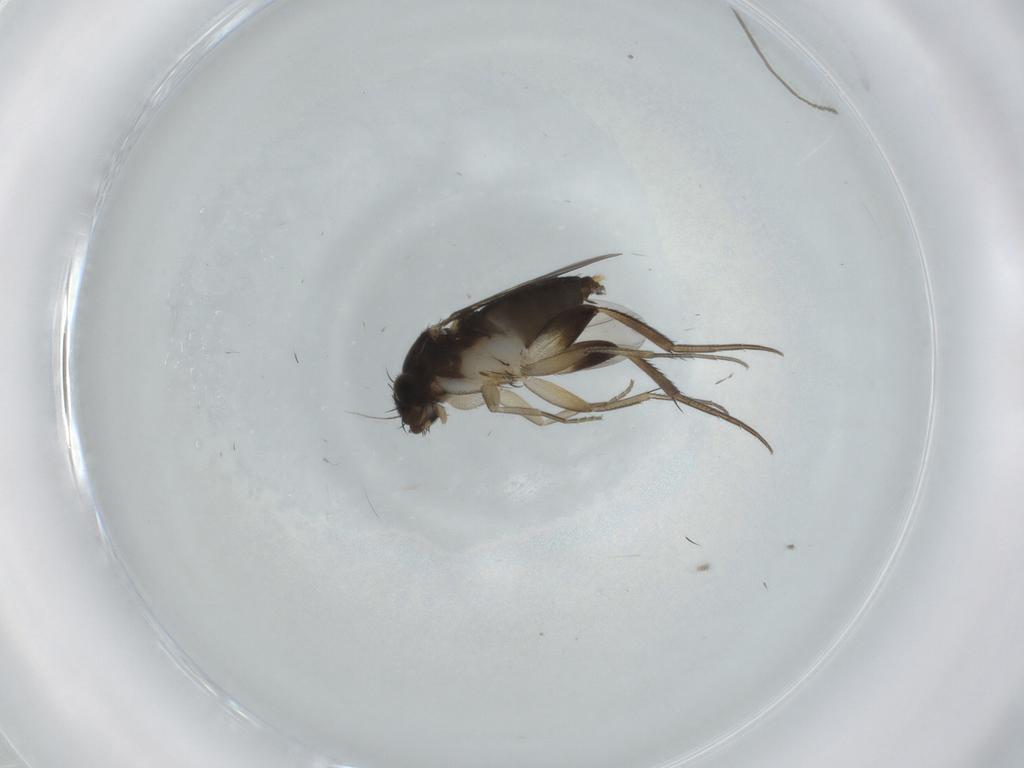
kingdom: Animalia
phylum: Arthropoda
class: Insecta
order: Diptera
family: Phoridae
